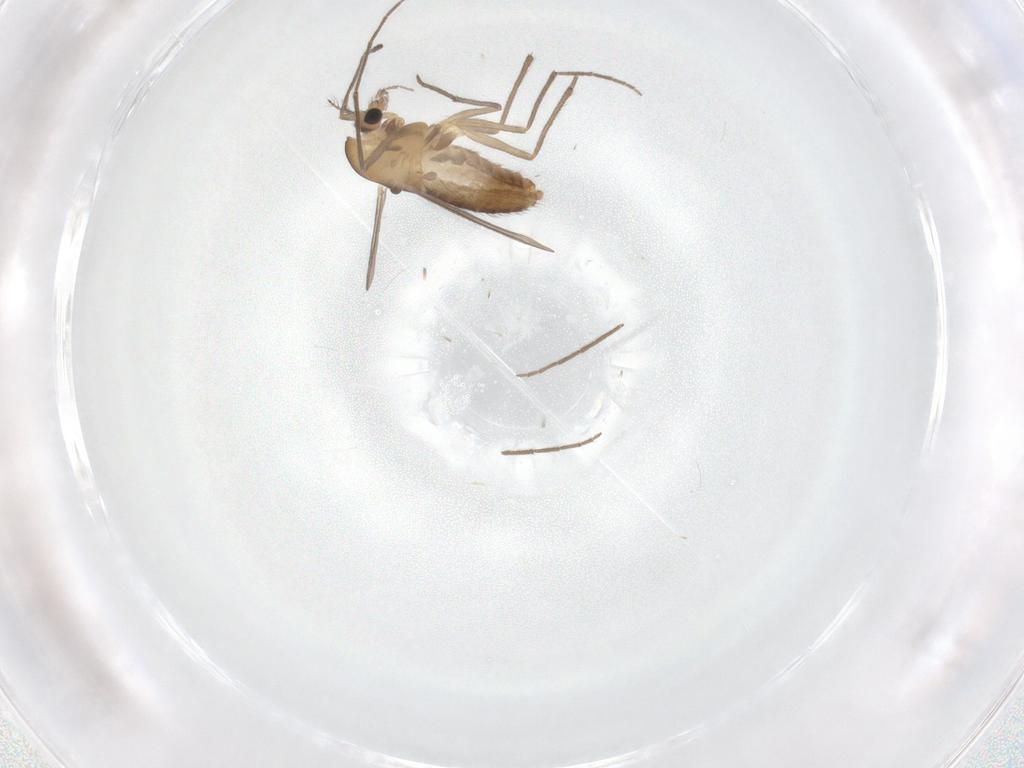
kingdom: Animalia
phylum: Arthropoda
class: Insecta
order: Diptera
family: Chironomidae
